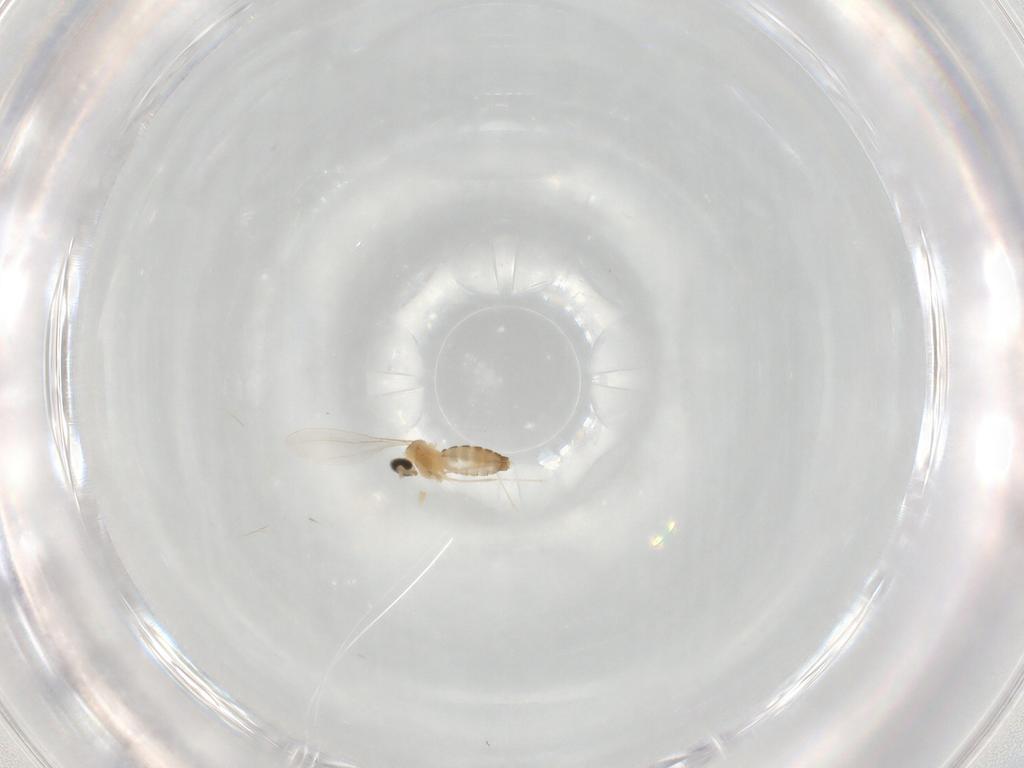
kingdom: Animalia
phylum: Arthropoda
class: Insecta
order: Diptera
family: Cecidomyiidae
